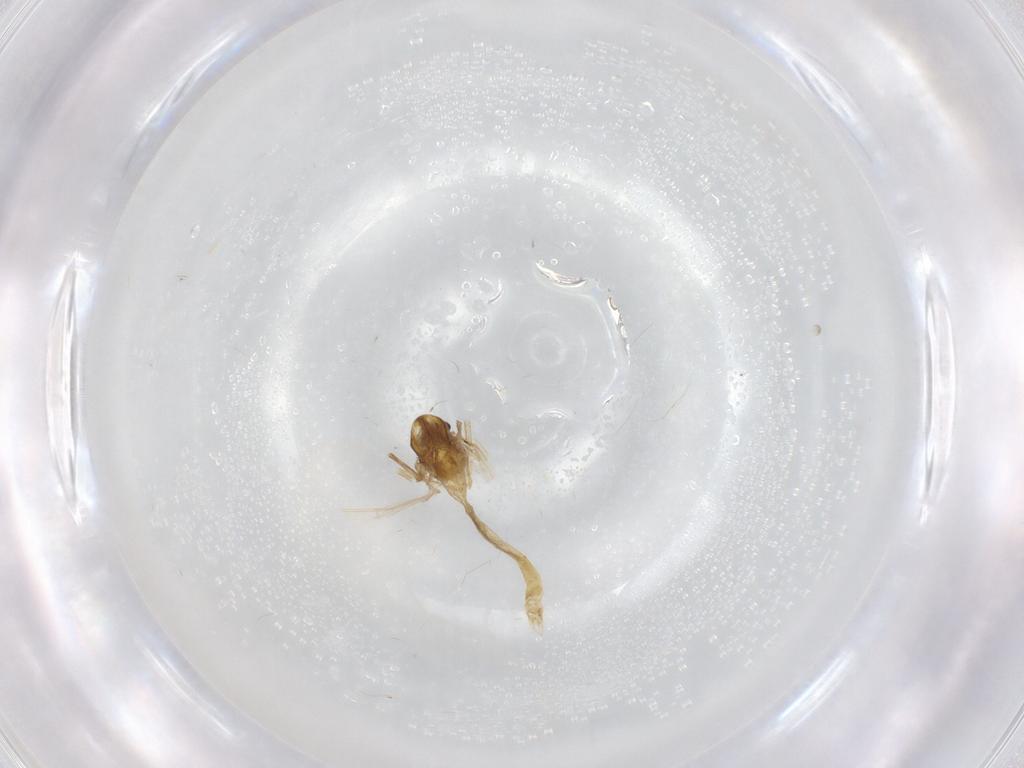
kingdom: Animalia
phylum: Arthropoda
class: Insecta
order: Diptera
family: Chironomidae
